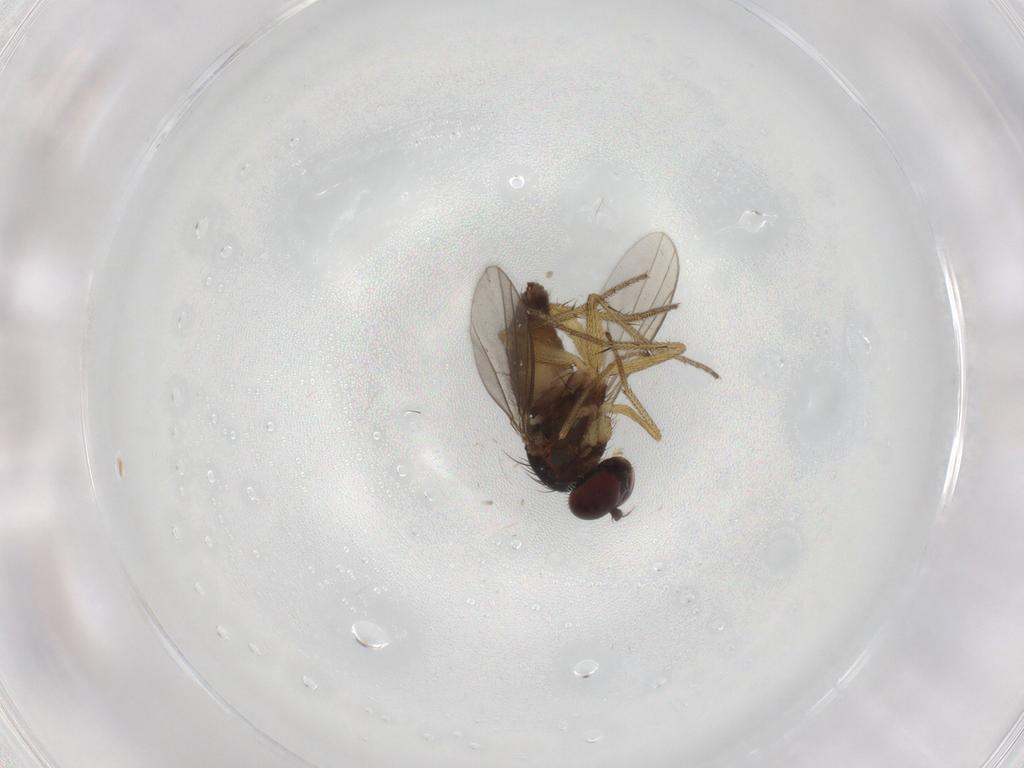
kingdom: Animalia
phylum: Arthropoda
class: Insecta
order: Diptera
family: Dolichopodidae
